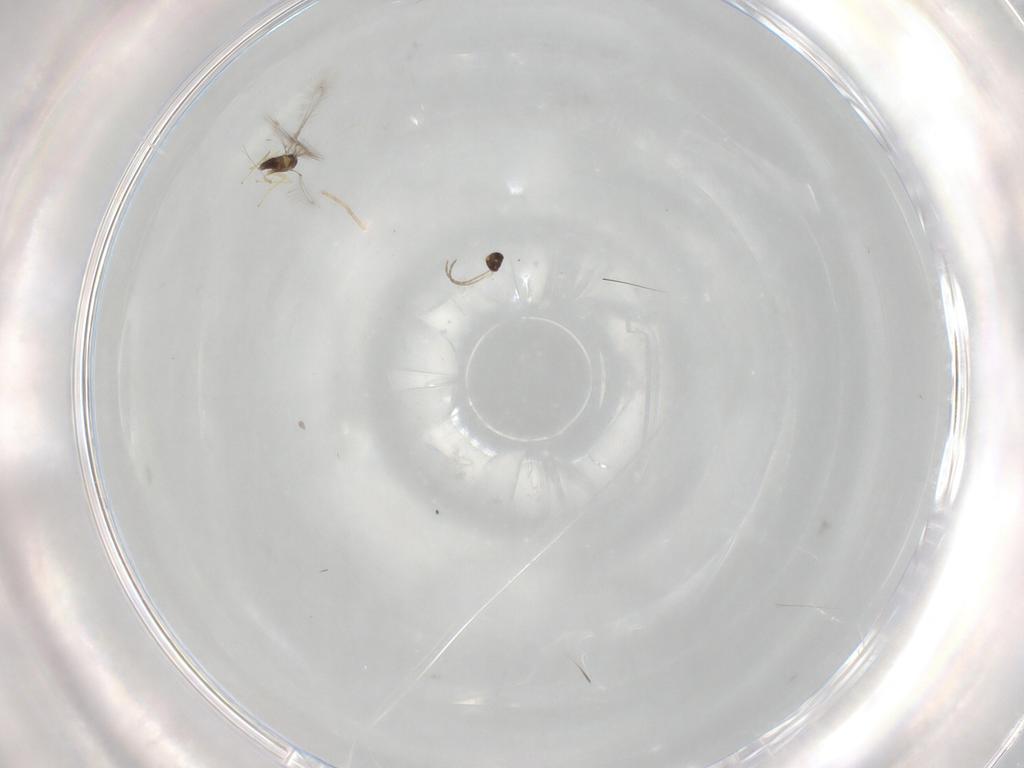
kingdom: Animalia
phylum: Arthropoda
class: Insecta
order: Hymenoptera
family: Mymaridae
